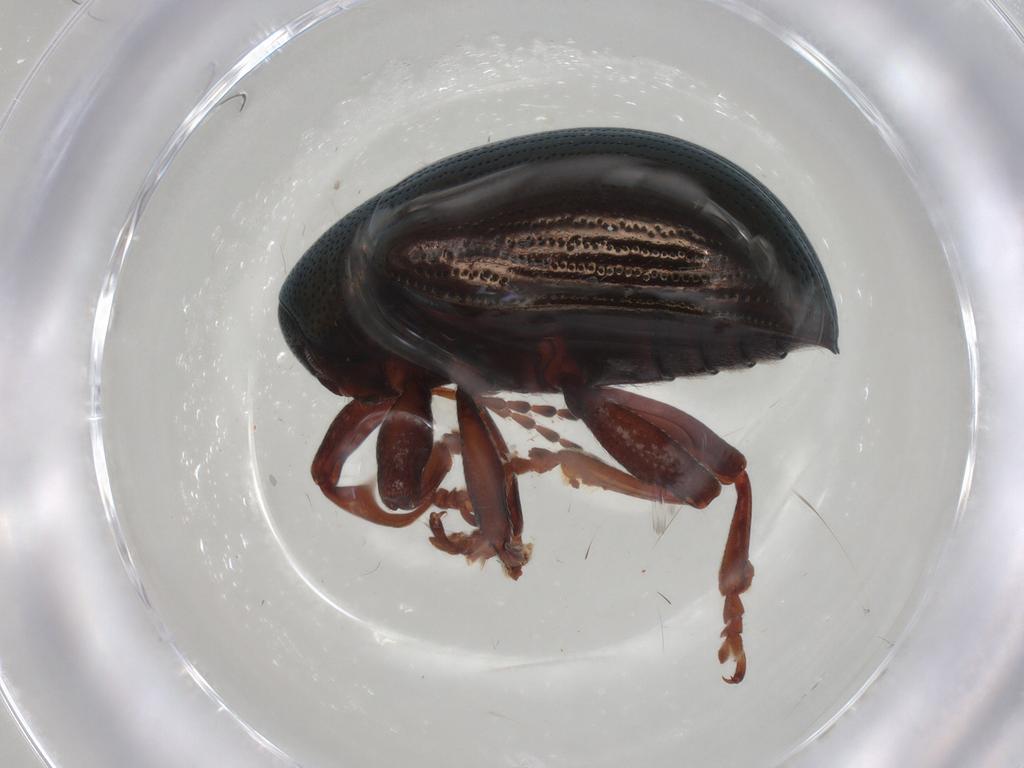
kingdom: Animalia
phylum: Arthropoda
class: Insecta
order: Coleoptera
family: Chrysomelidae
